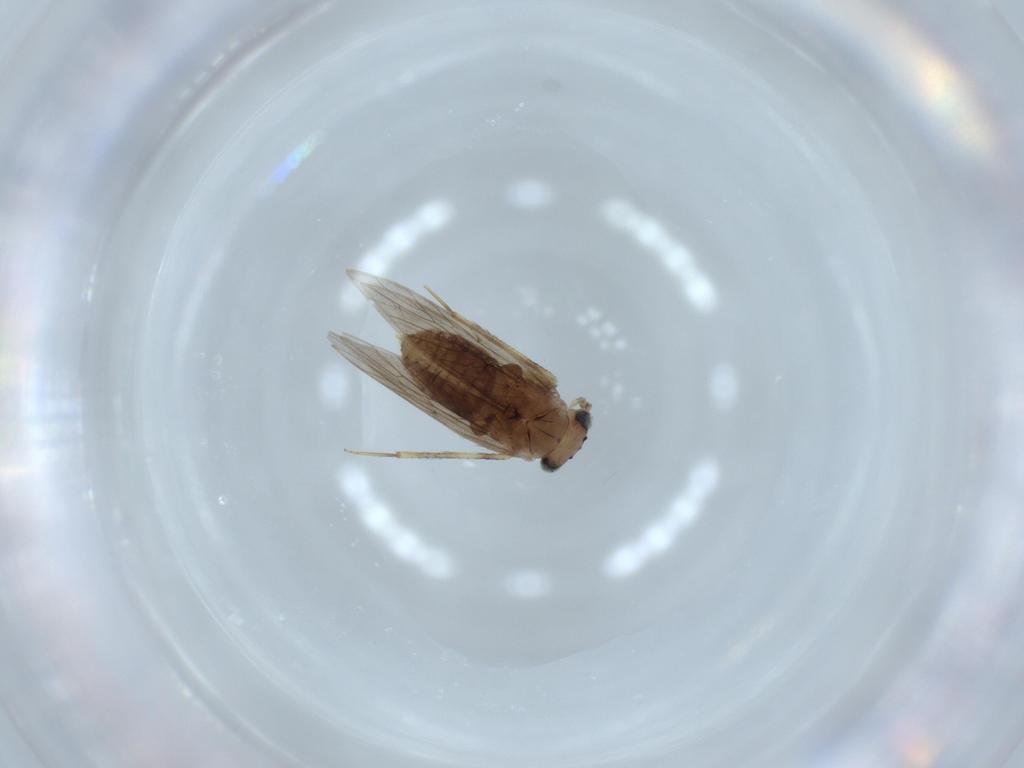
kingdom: Animalia
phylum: Arthropoda
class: Insecta
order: Psocodea
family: Lepidopsocidae
